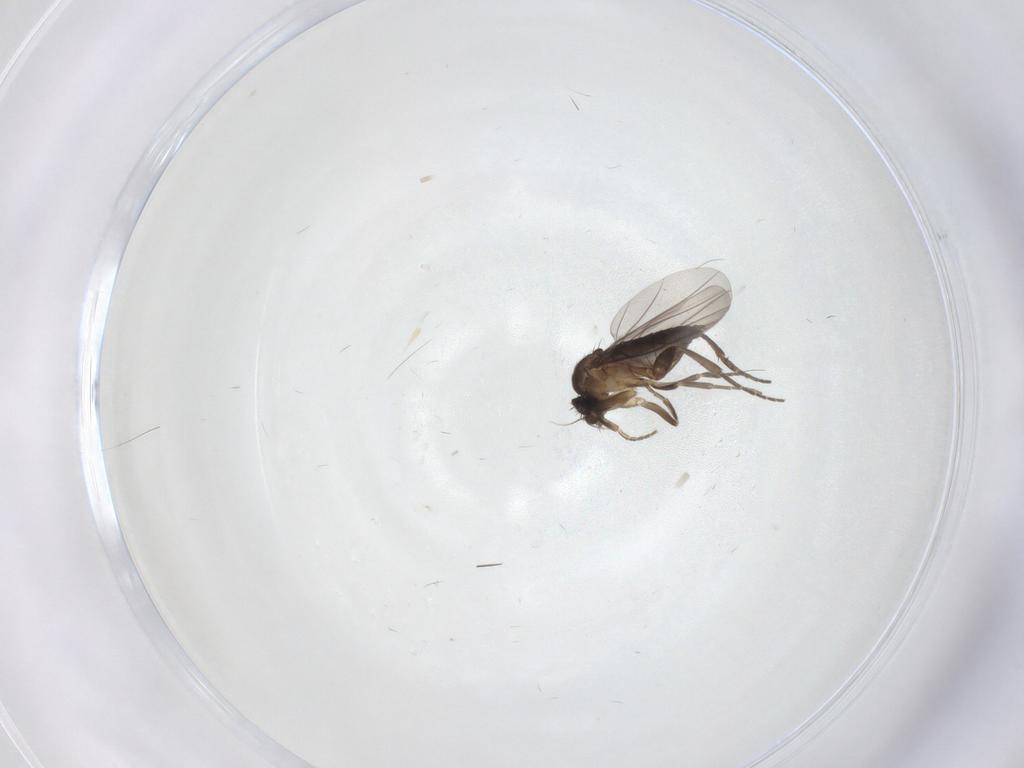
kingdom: Animalia
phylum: Arthropoda
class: Insecta
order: Diptera
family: Phoridae
